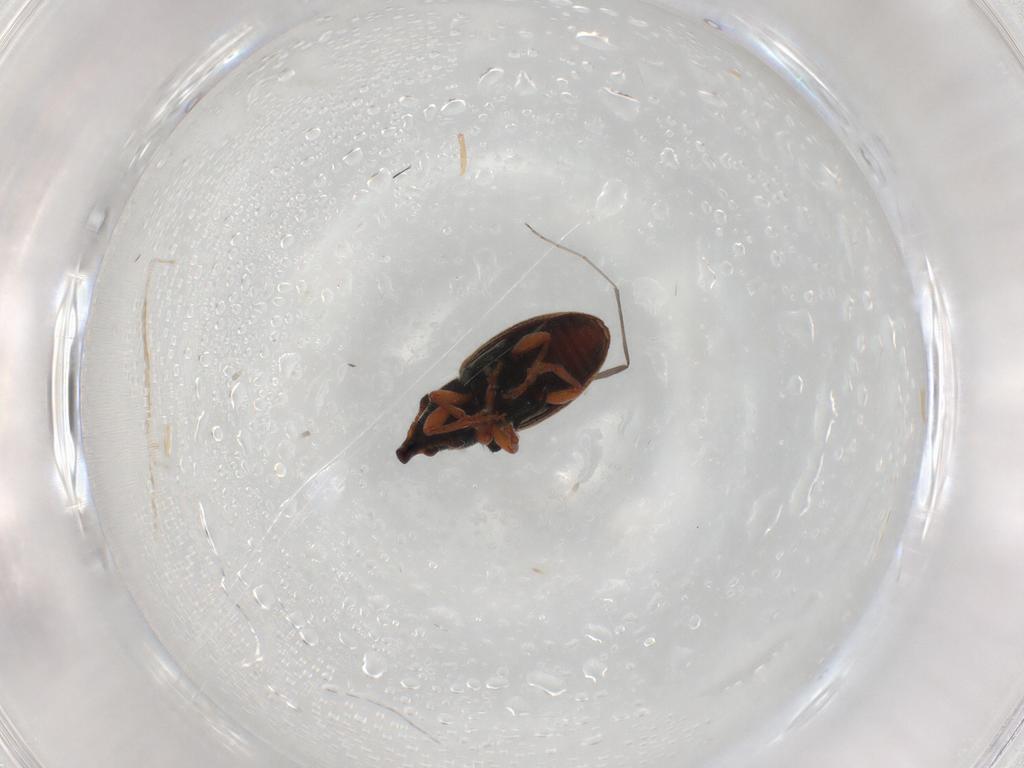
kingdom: Animalia
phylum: Arthropoda
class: Insecta
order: Coleoptera
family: Curculionidae
